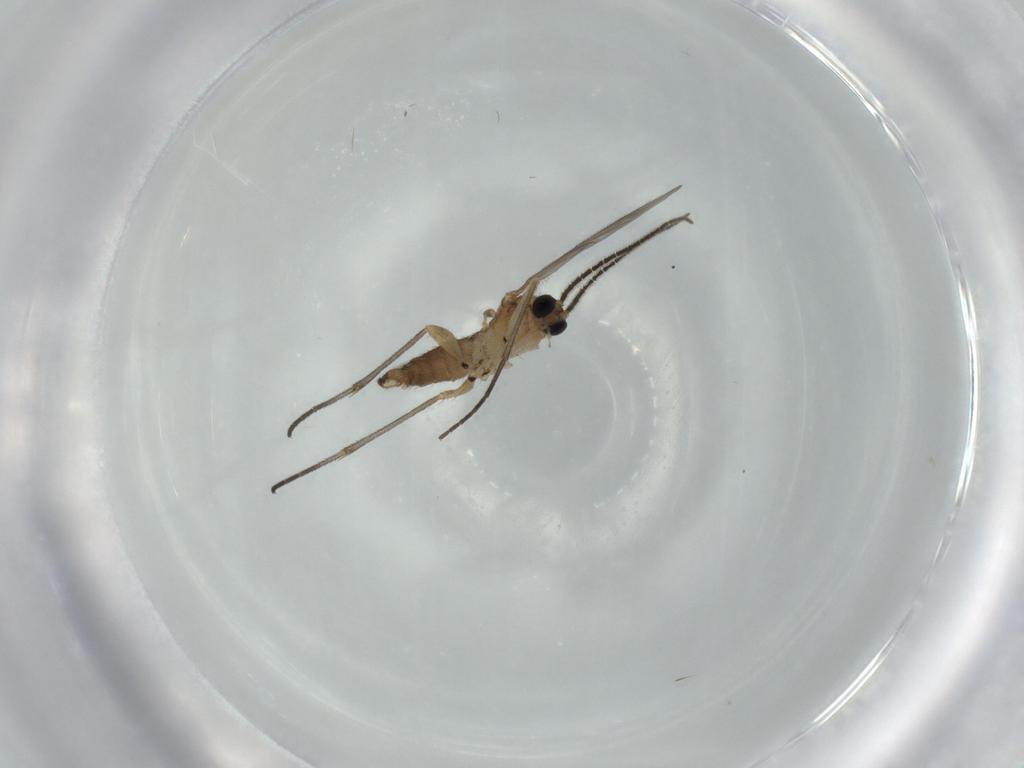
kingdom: Animalia
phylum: Arthropoda
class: Insecta
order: Diptera
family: Sciaridae
